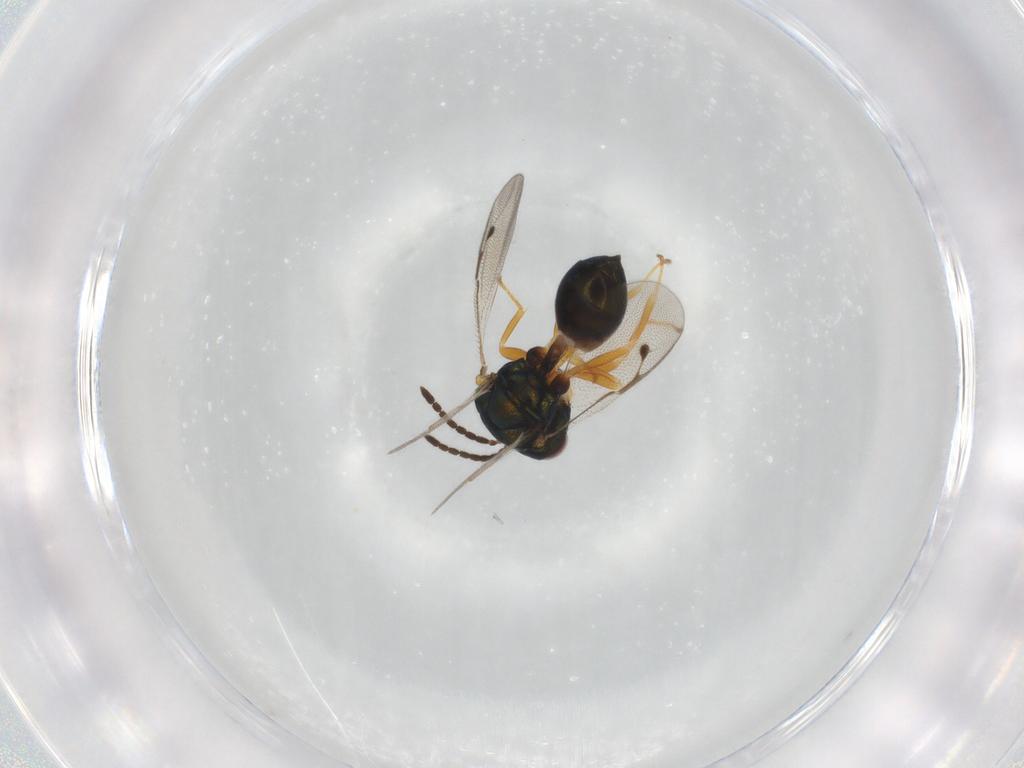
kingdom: Animalia
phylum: Arthropoda
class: Insecta
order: Hymenoptera
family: Pteromalidae
